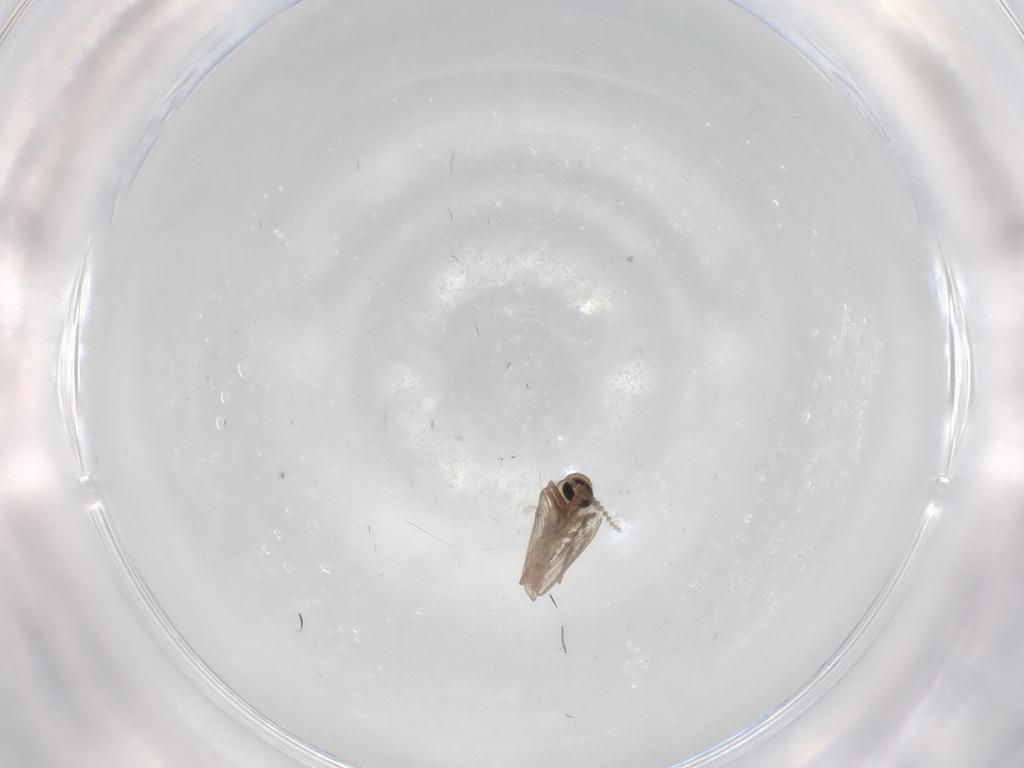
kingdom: Animalia
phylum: Arthropoda
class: Insecta
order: Diptera
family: Psychodidae
